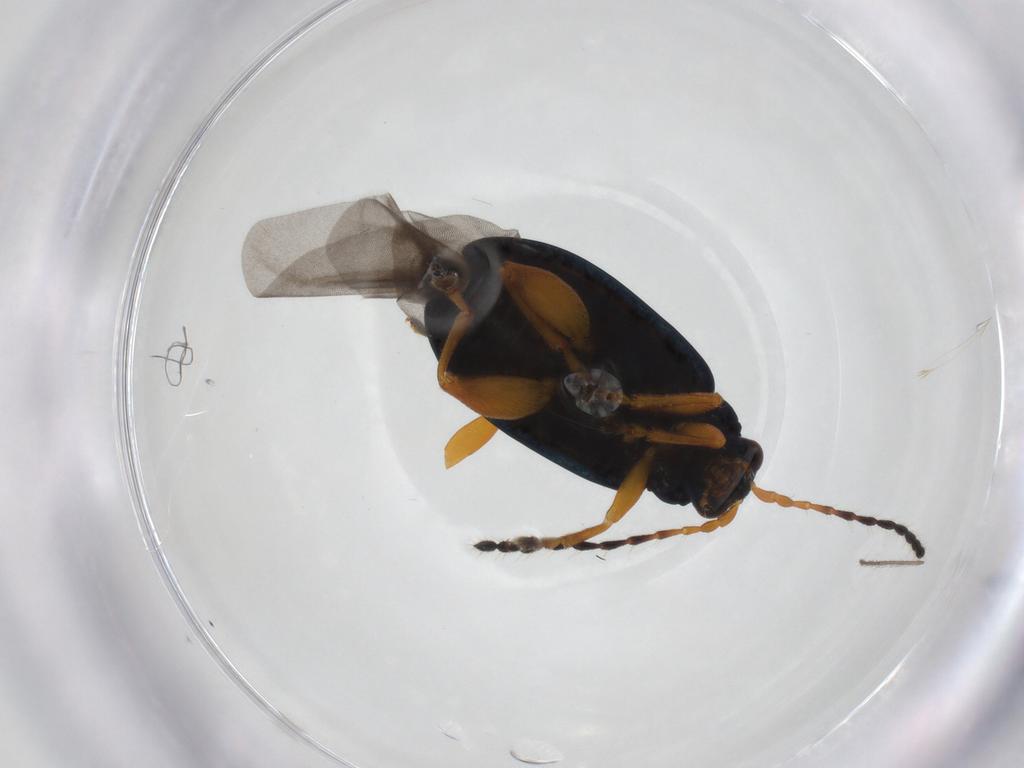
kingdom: Animalia
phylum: Arthropoda
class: Insecta
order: Coleoptera
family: Chrysomelidae
